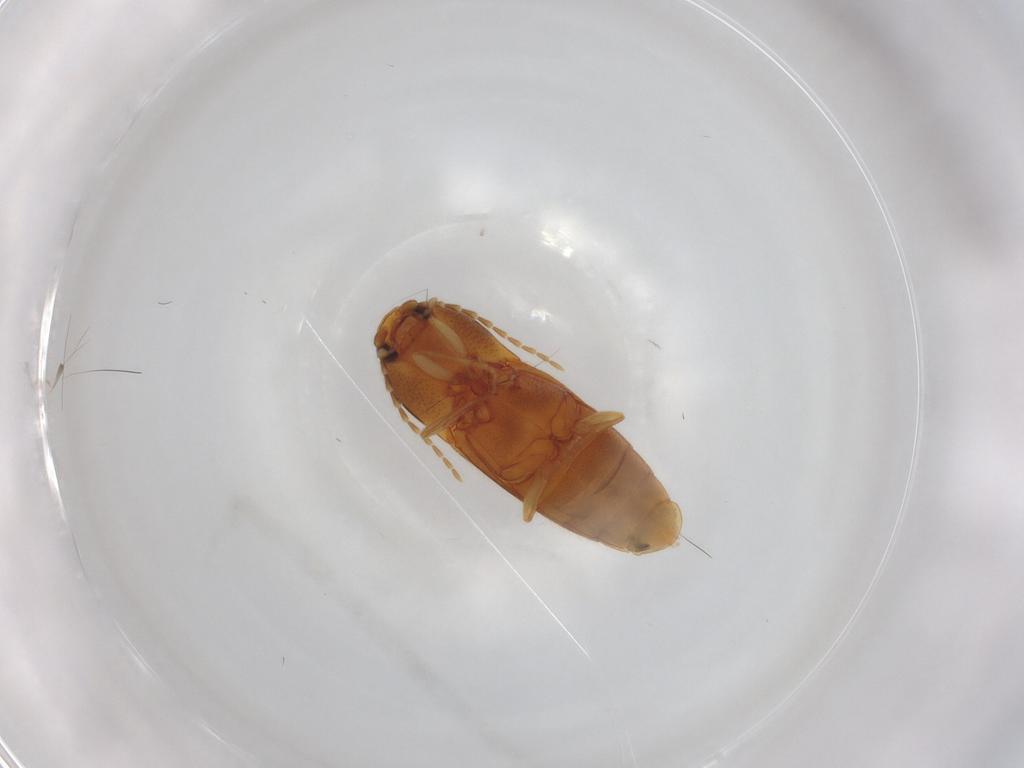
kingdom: Animalia
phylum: Arthropoda
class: Insecta
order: Coleoptera
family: Elateridae
